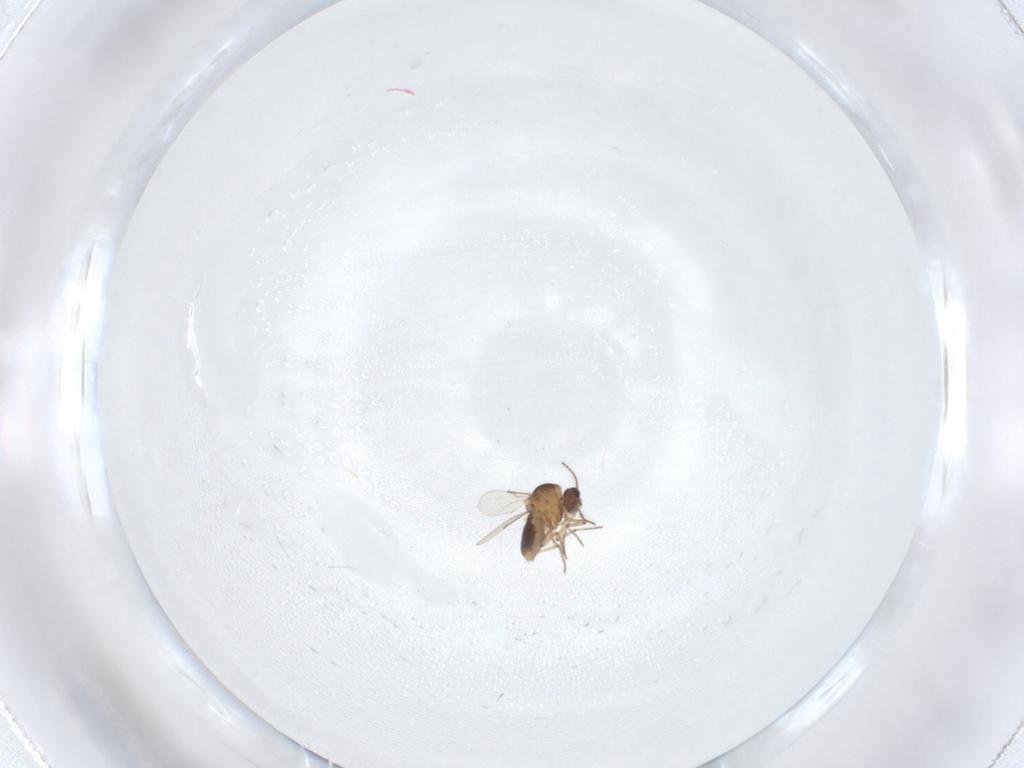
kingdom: Animalia
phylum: Arthropoda
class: Insecta
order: Diptera
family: Ceratopogonidae
